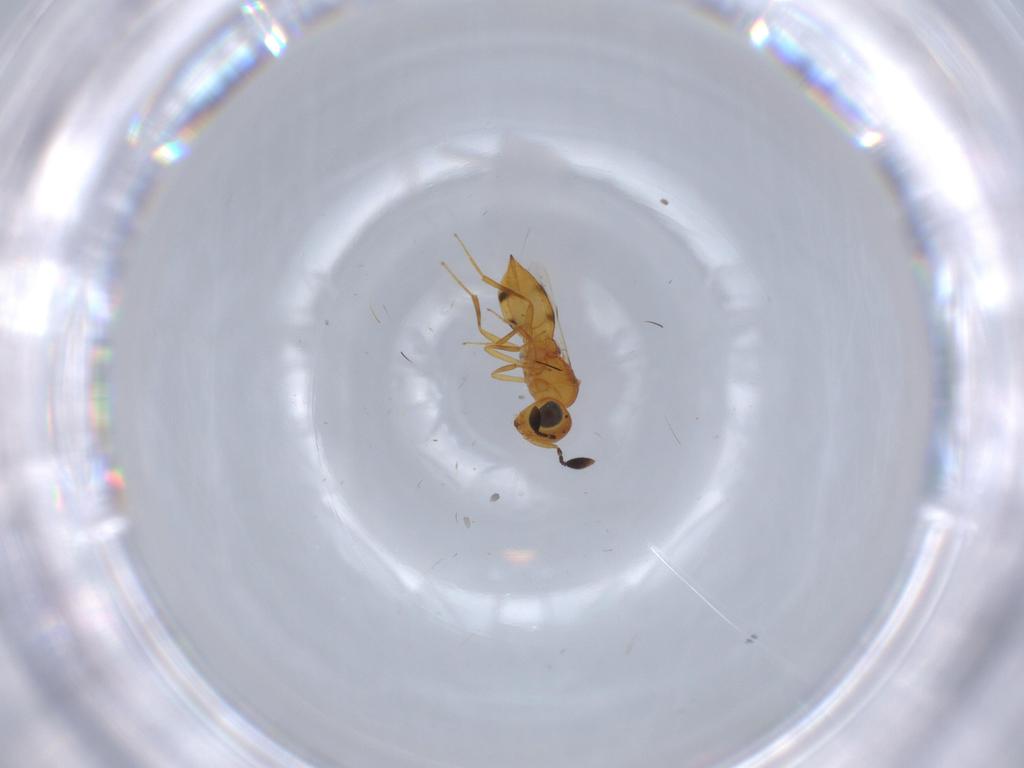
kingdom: Animalia
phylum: Arthropoda
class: Insecta
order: Hymenoptera
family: Scelionidae
